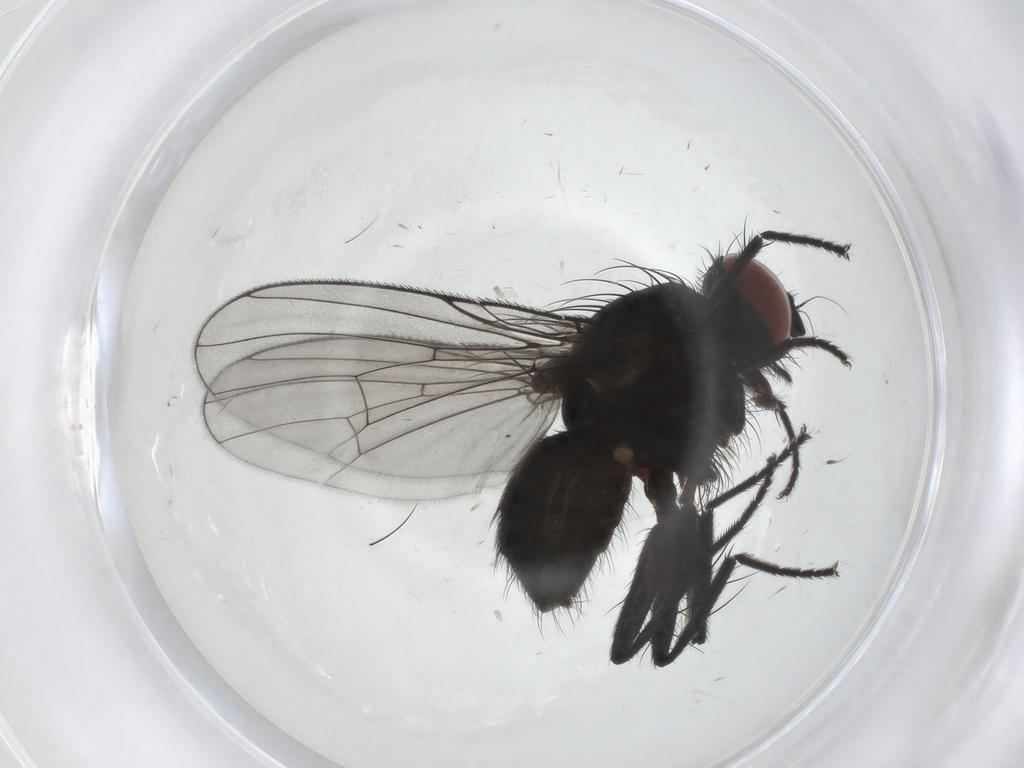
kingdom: Animalia
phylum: Arthropoda
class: Insecta
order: Diptera
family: Muscidae
